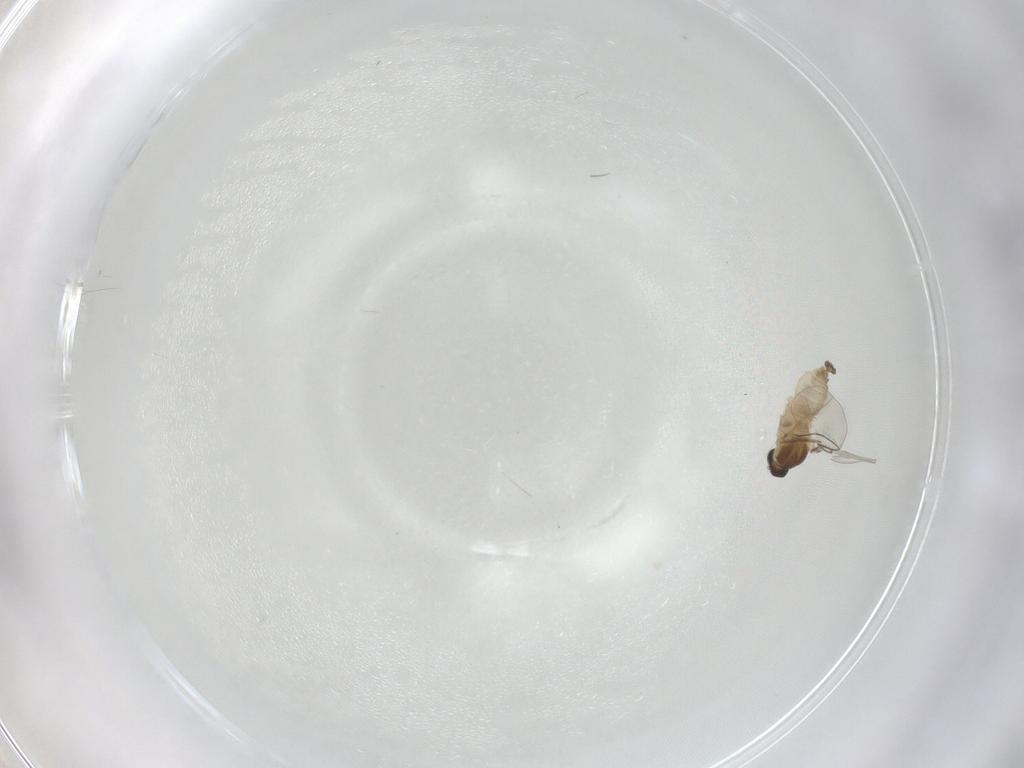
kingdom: Animalia
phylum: Arthropoda
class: Insecta
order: Diptera
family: Cecidomyiidae
